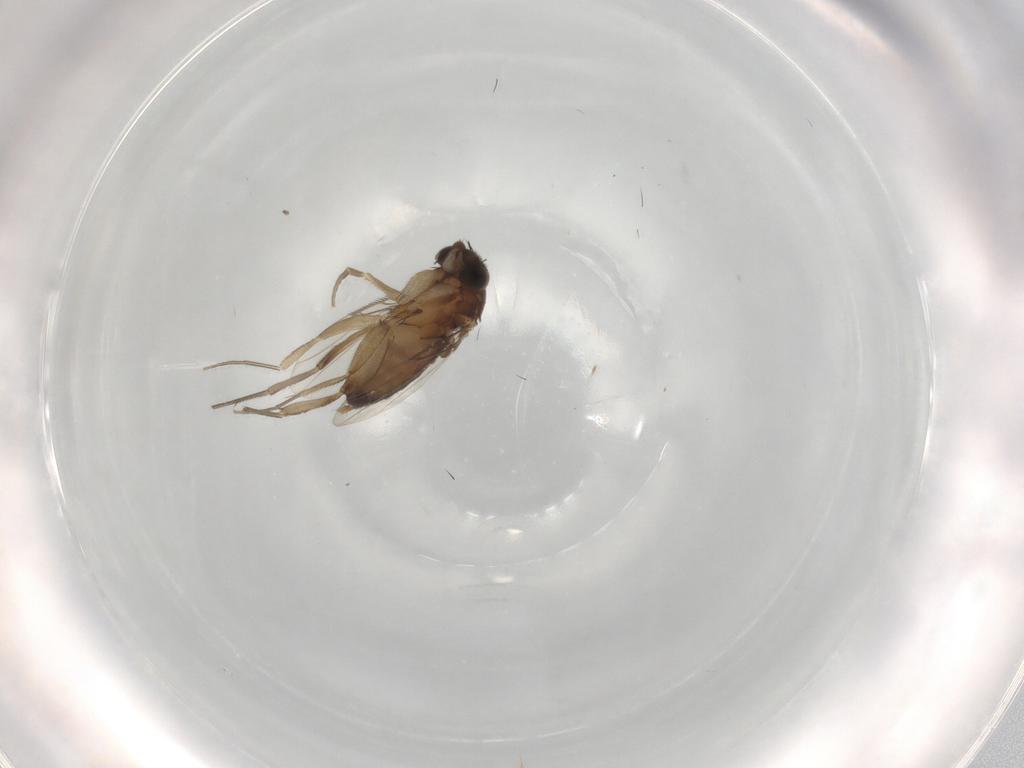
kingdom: Animalia
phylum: Arthropoda
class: Insecta
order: Diptera
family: Phoridae
